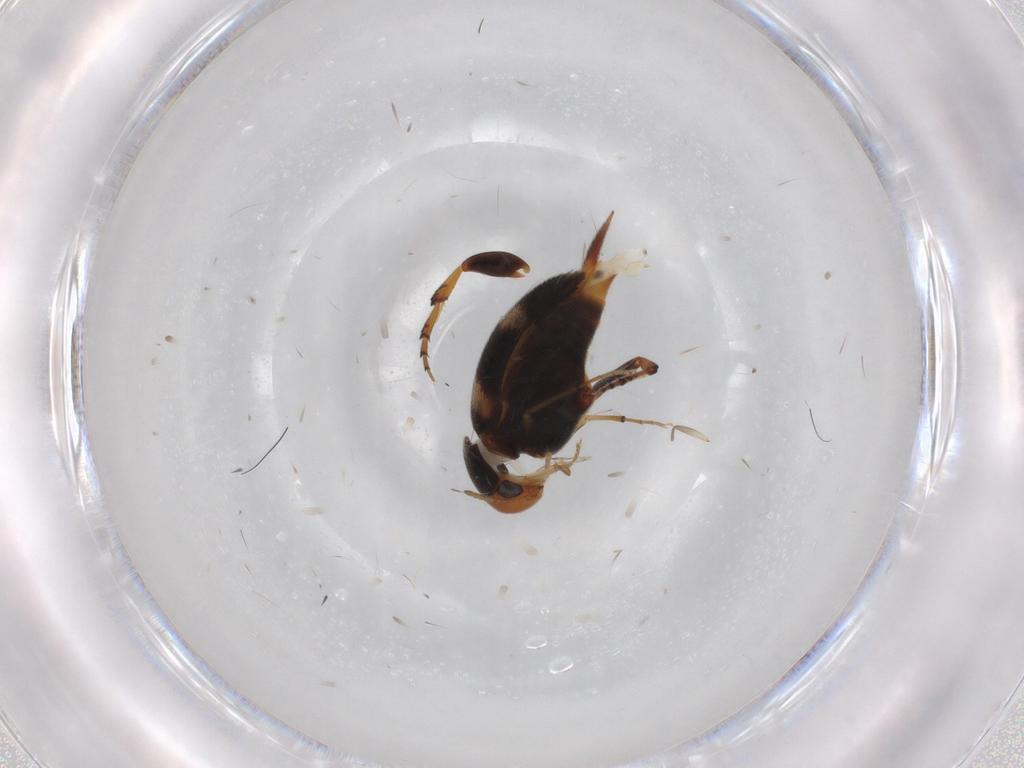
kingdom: Animalia
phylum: Arthropoda
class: Insecta
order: Coleoptera
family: Mordellidae
